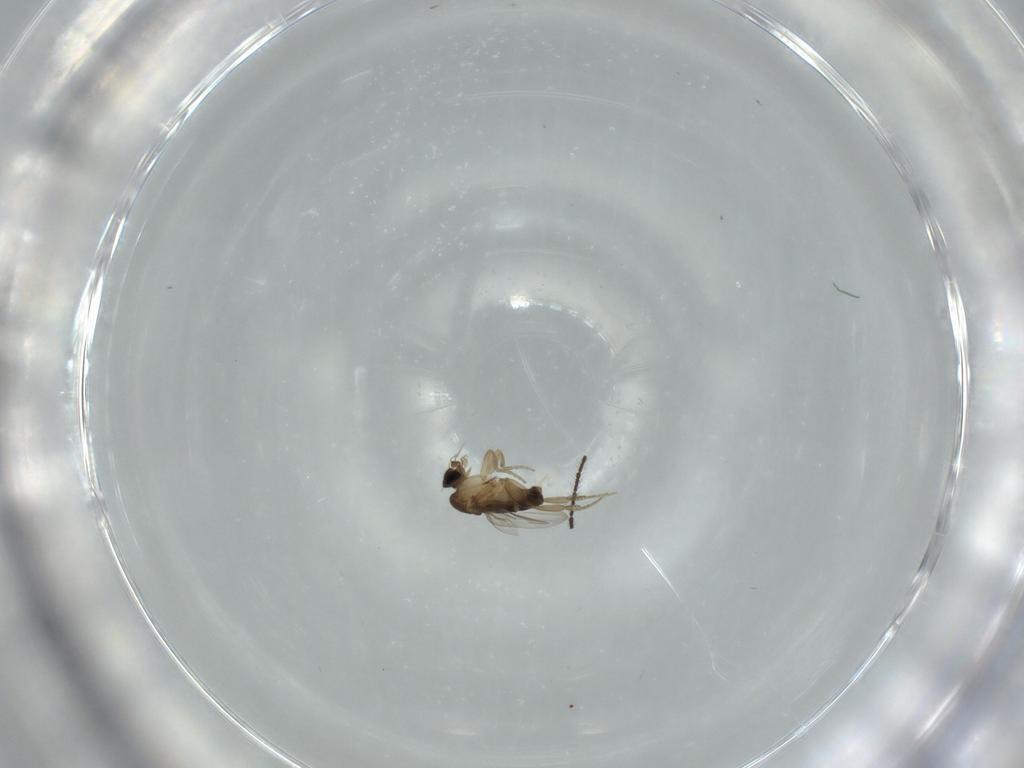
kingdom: Animalia
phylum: Arthropoda
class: Insecta
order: Diptera
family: Phoridae
